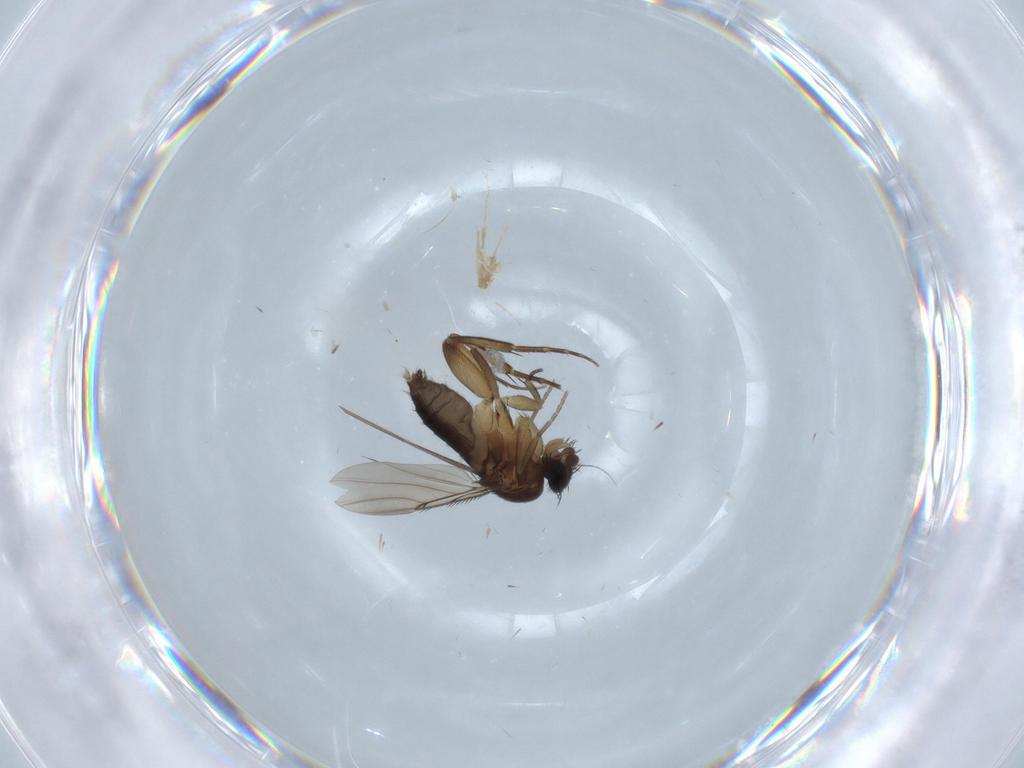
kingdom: Animalia
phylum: Arthropoda
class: Insecta
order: Diptera
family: Phoridae
